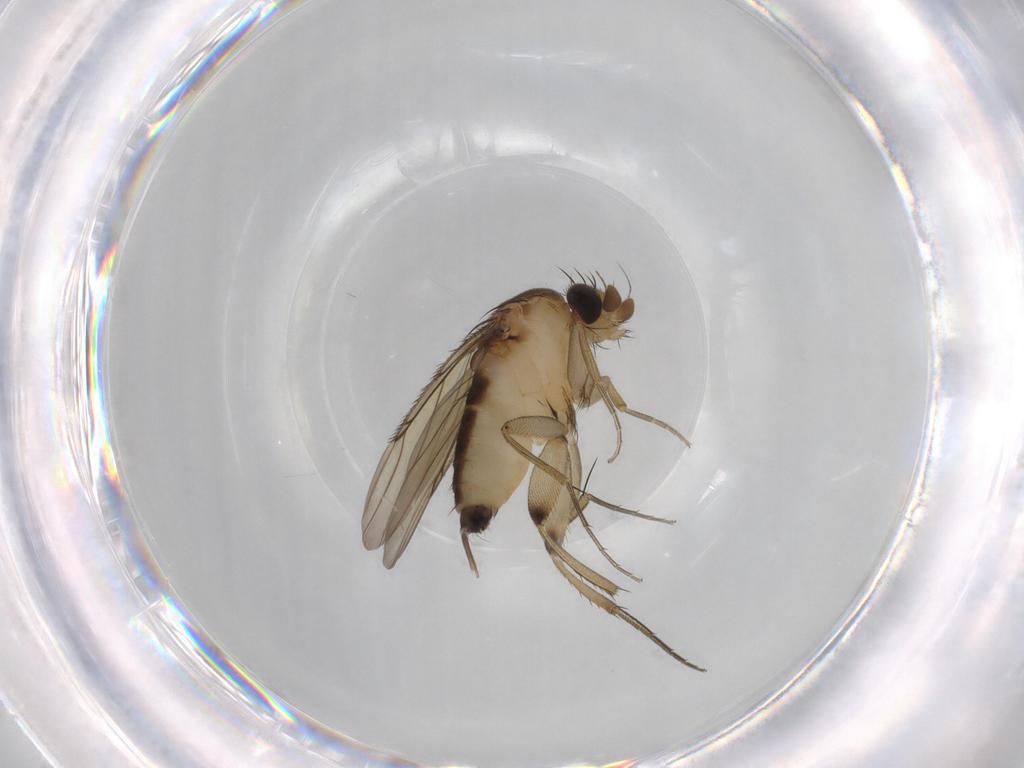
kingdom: Animalia
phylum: Arthropoda
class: Insecta
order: Diptera
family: Phoridae
